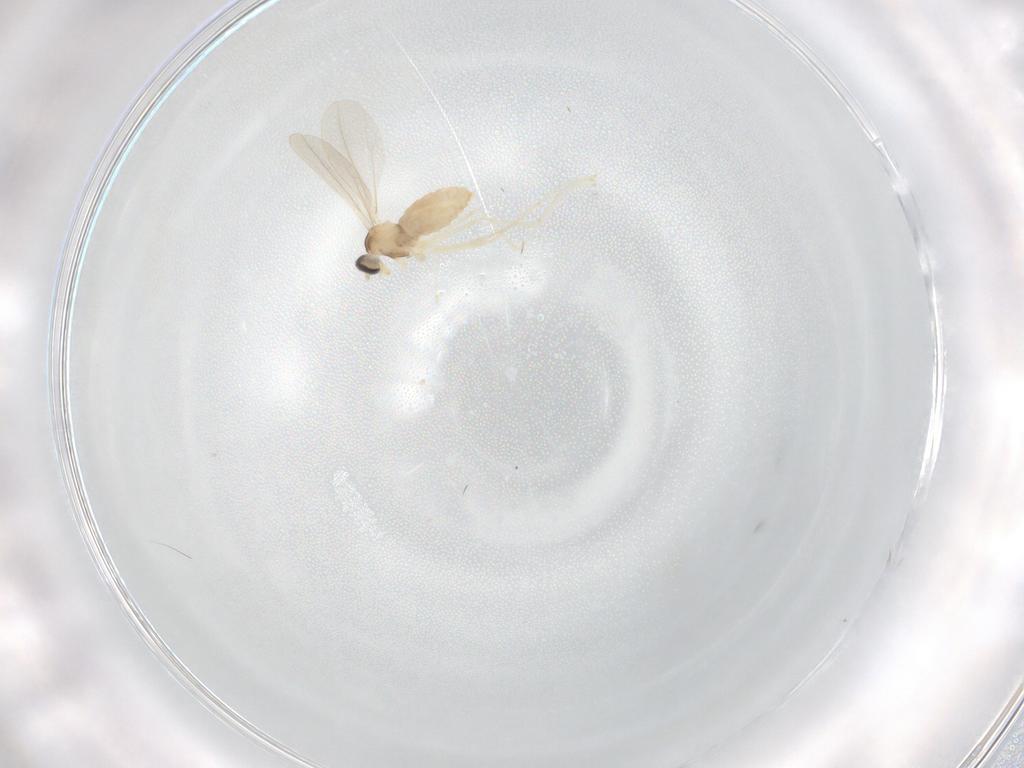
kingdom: Animalia
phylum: Arthropoda
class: Insecta
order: Diptera
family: Cecidomyiidae
